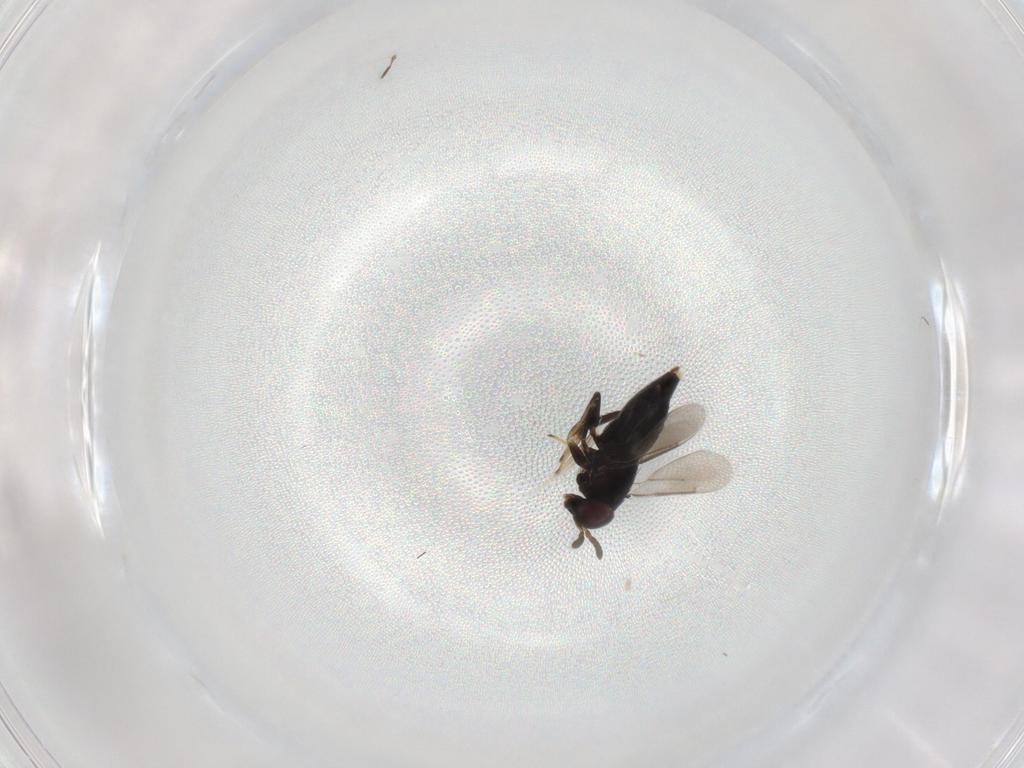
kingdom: Animalia
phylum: Arthropoda
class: Insecta
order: Hymenoptera
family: Aphelinidae
